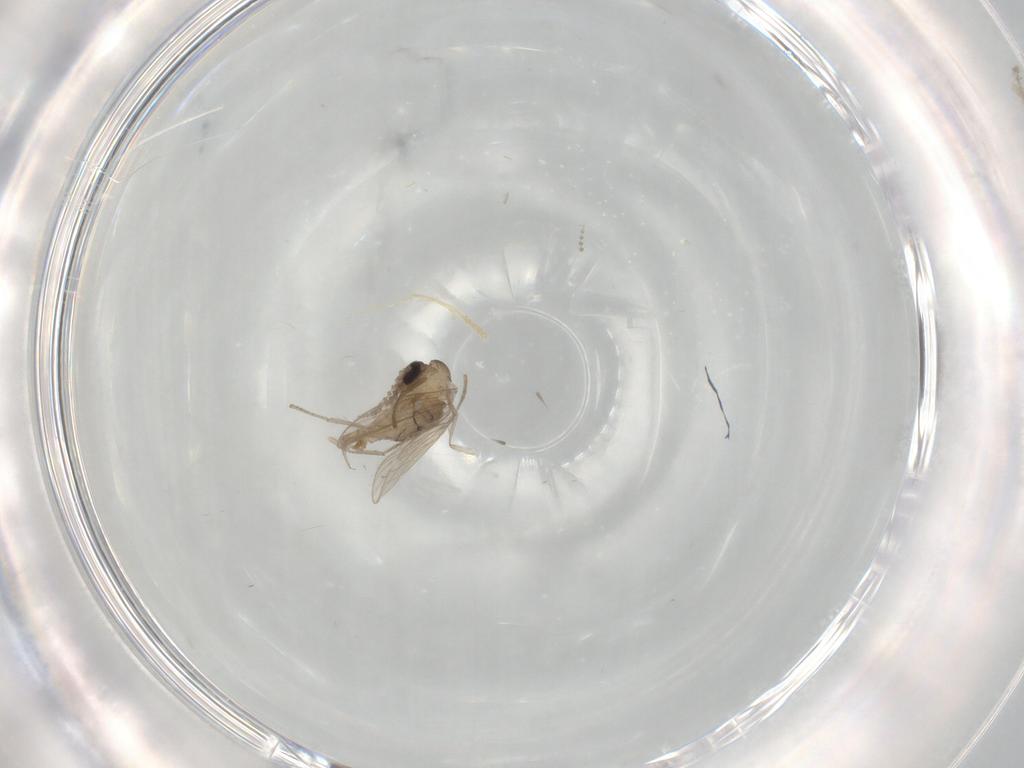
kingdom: Animalia
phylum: Arthropoda
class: Insecta
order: Diptera
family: Psychodidae
